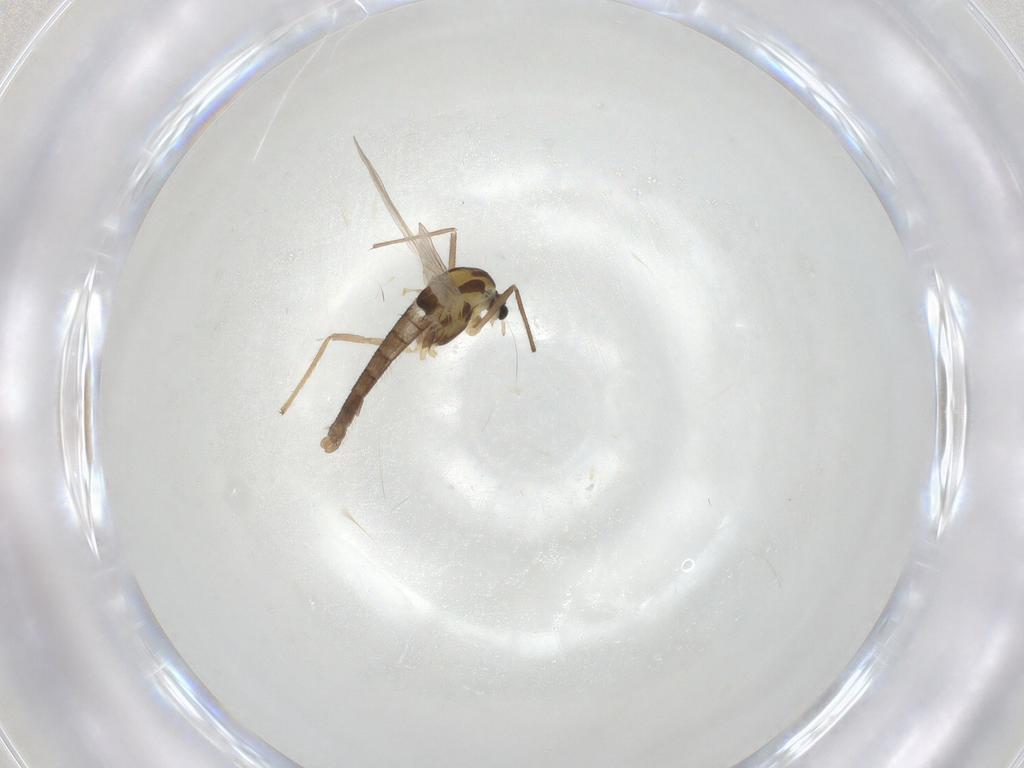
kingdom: Animalia
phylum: Arthropoda
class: Insecta
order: Diptera
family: Chironomidae
